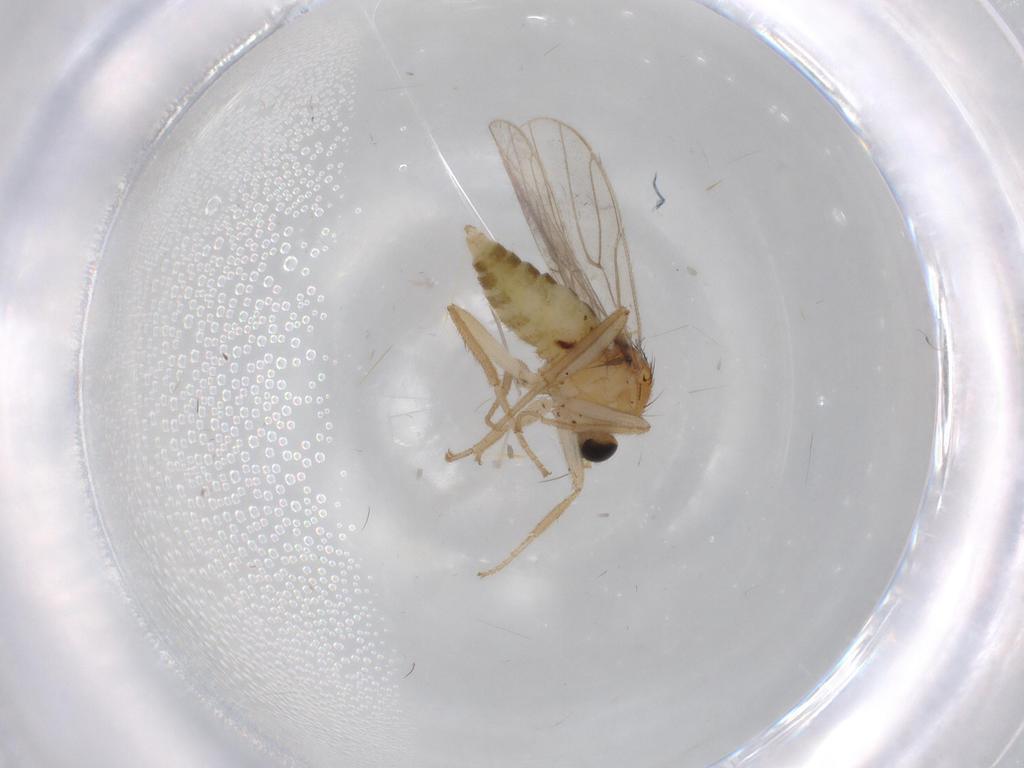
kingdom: Animalia
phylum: Arthropoda
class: Insecta
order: Diptera
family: Hybotidae
